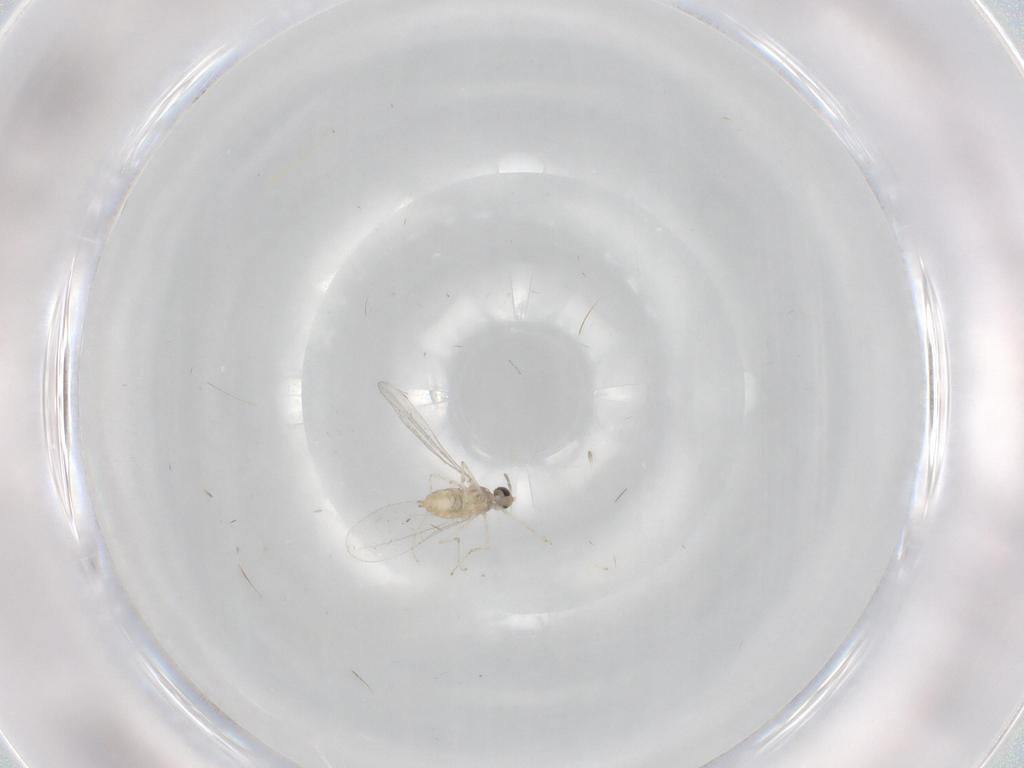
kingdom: Animalia
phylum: Arthropoda
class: Insecta
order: Diptera
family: Cecidomyiidae
